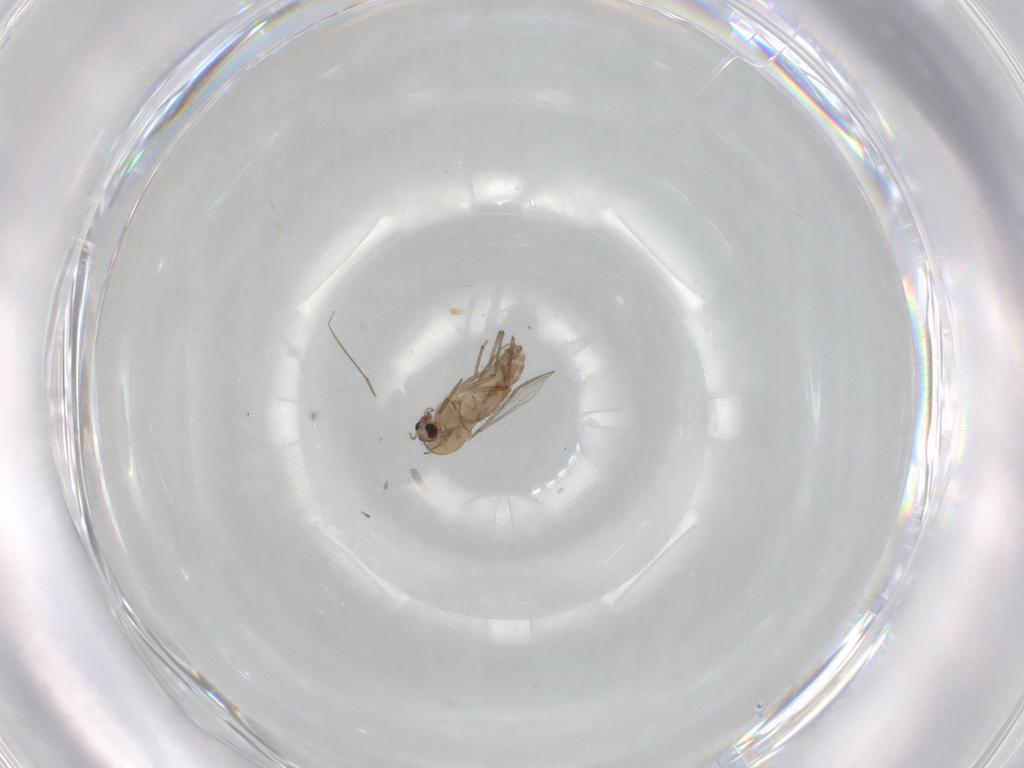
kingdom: Animalia
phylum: Arthropoda
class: Insecta
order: Diptera
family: Chironomidae
